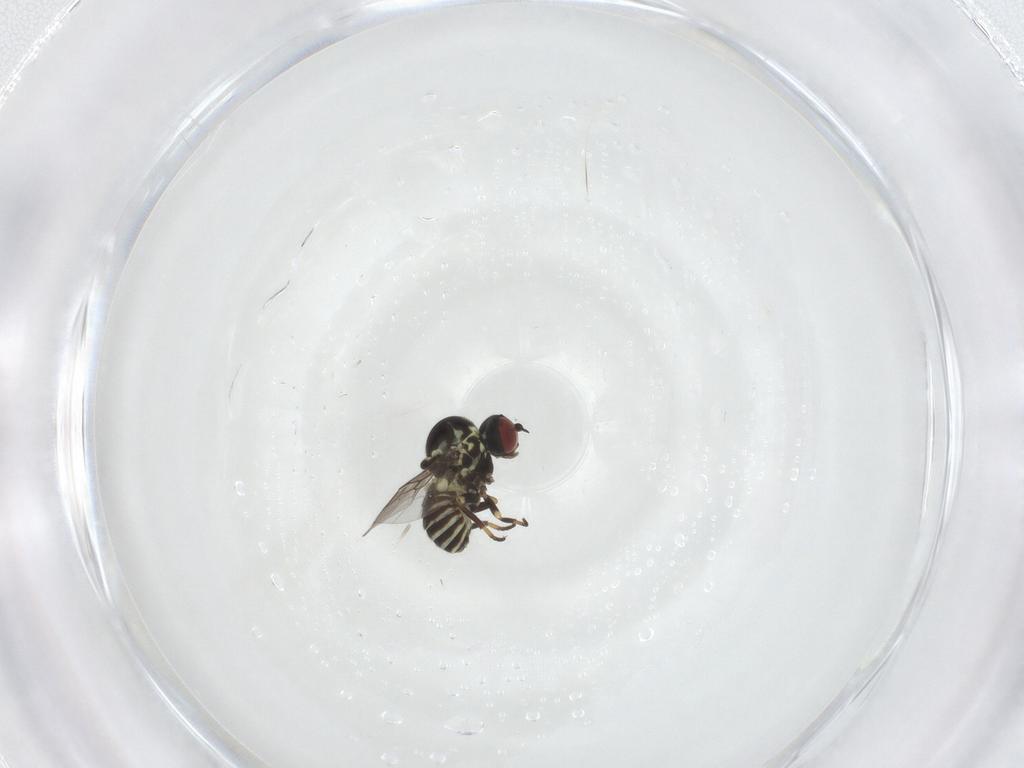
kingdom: Animalia
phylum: Arthropoda
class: Insecta
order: Diptera
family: Mythicomyiidae
